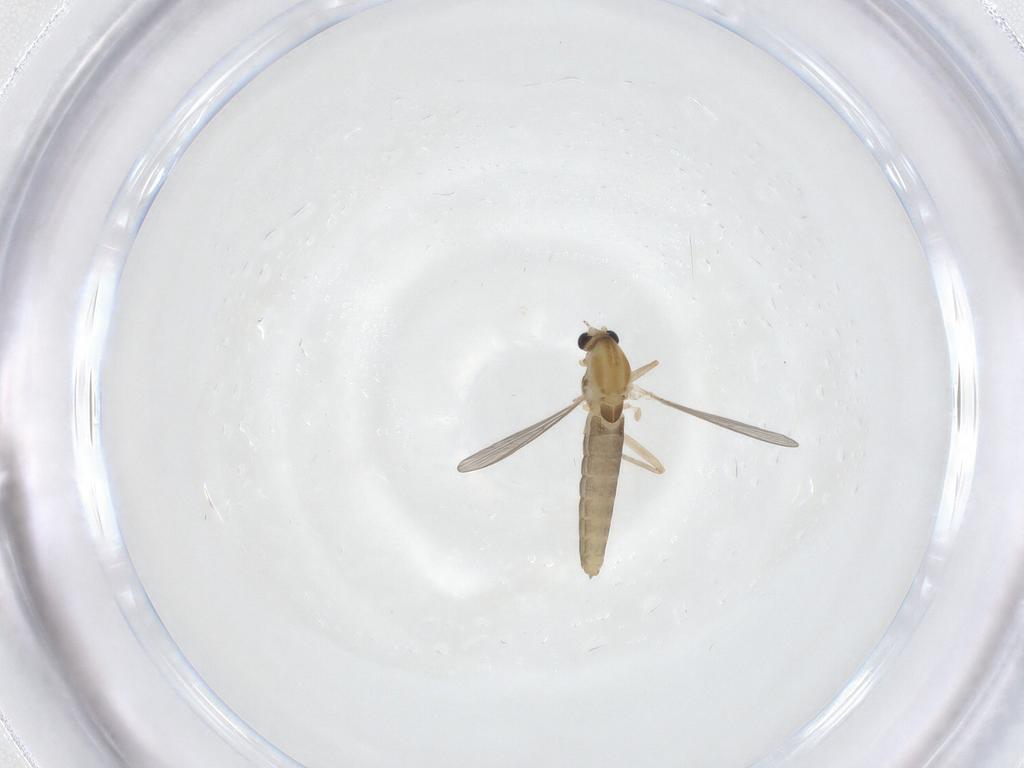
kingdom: Animalia
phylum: Arthropoda
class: Insecta
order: Diptera
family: Chironomidae
